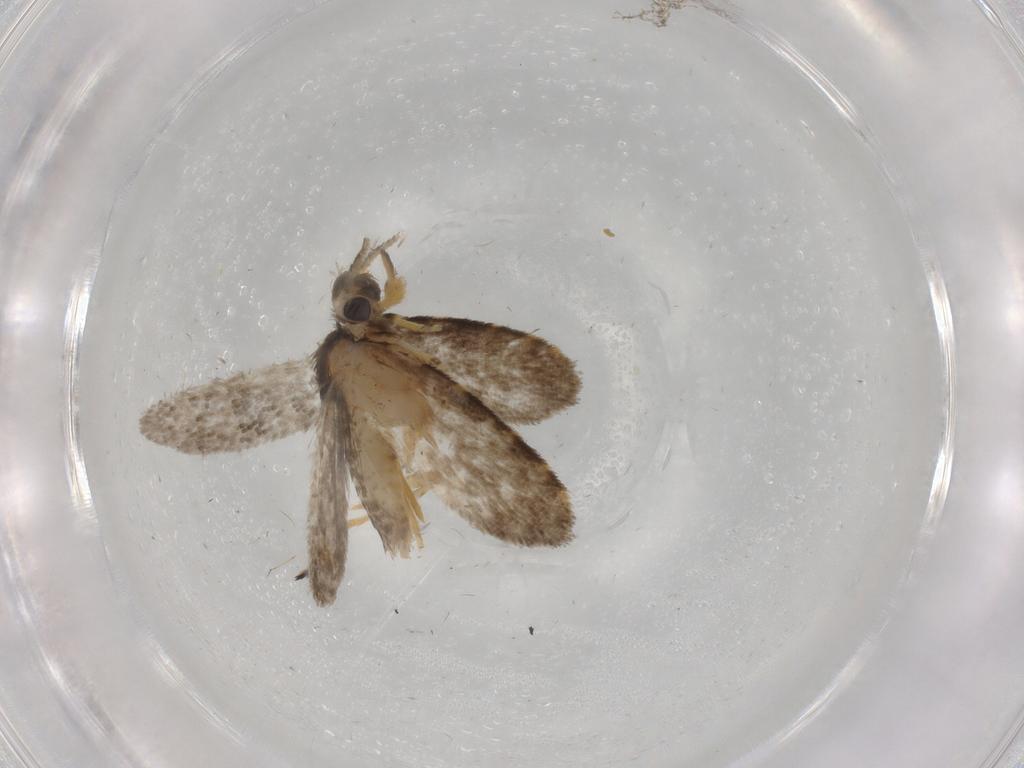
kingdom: Animalia
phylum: Arthropoda
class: Insecta
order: Lepidoptera
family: Psychidae
